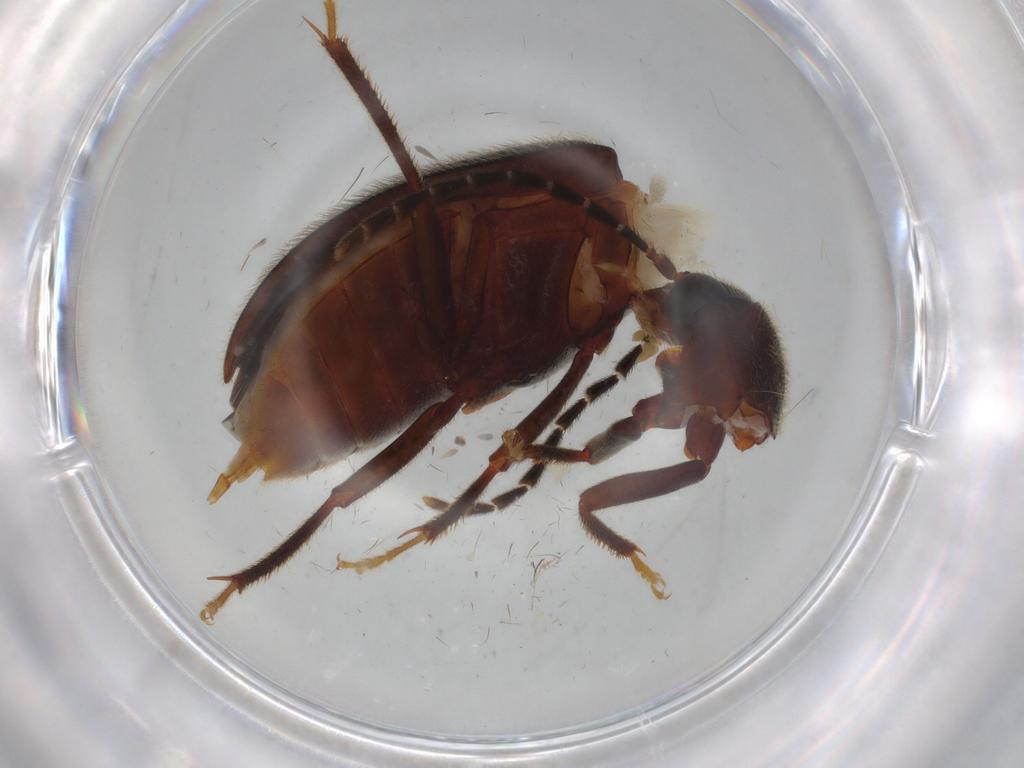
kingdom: Animalia
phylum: Arthropoda
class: Insecta
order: Coleoptera
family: Ptilodactylidae
